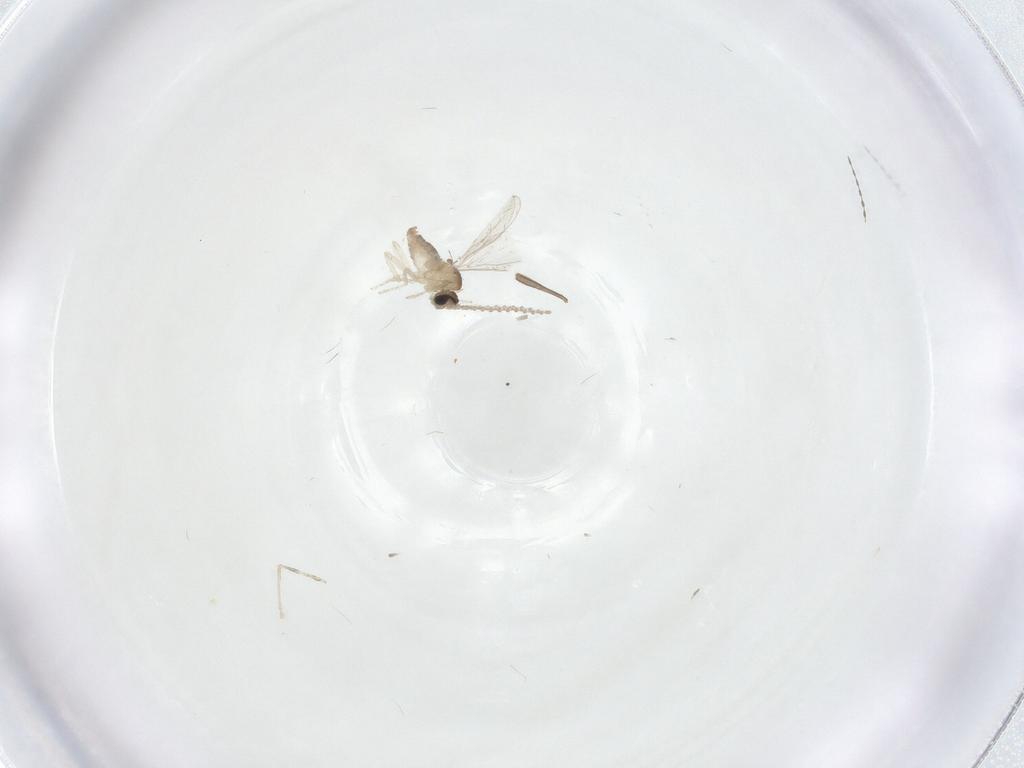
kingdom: Animalia
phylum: Arthropoda
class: Insecta
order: Diptera
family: Cecidomyiidae
